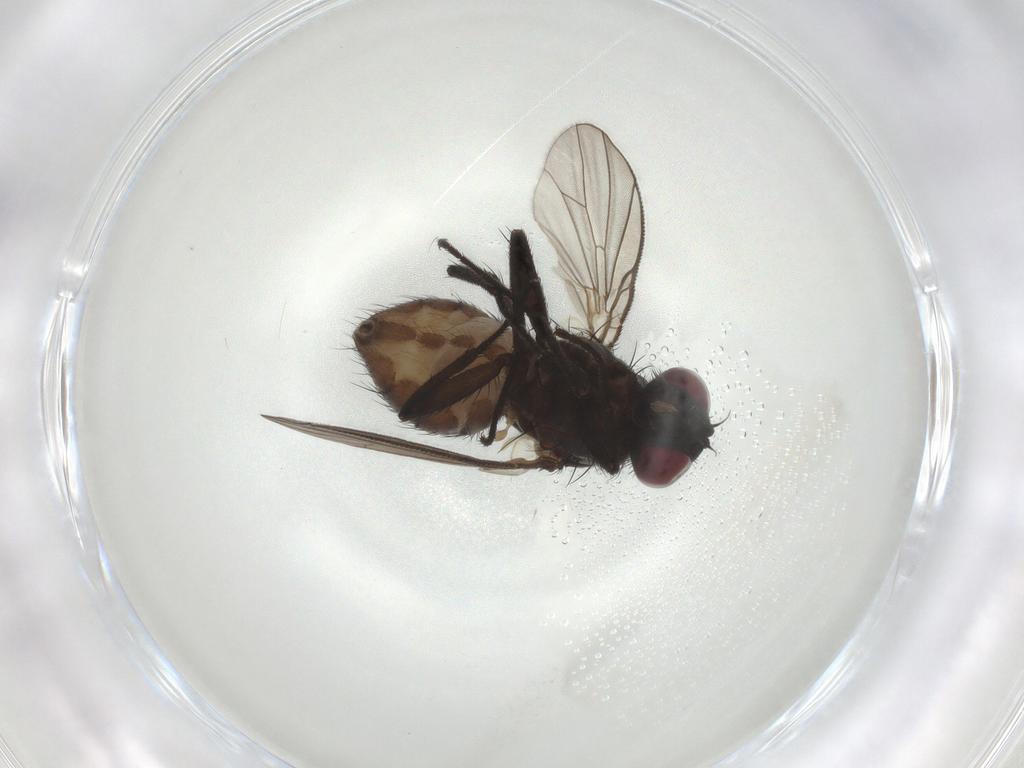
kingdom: Animalia
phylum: Arthropoda
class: Insecta
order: Diptera
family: Muscidae
